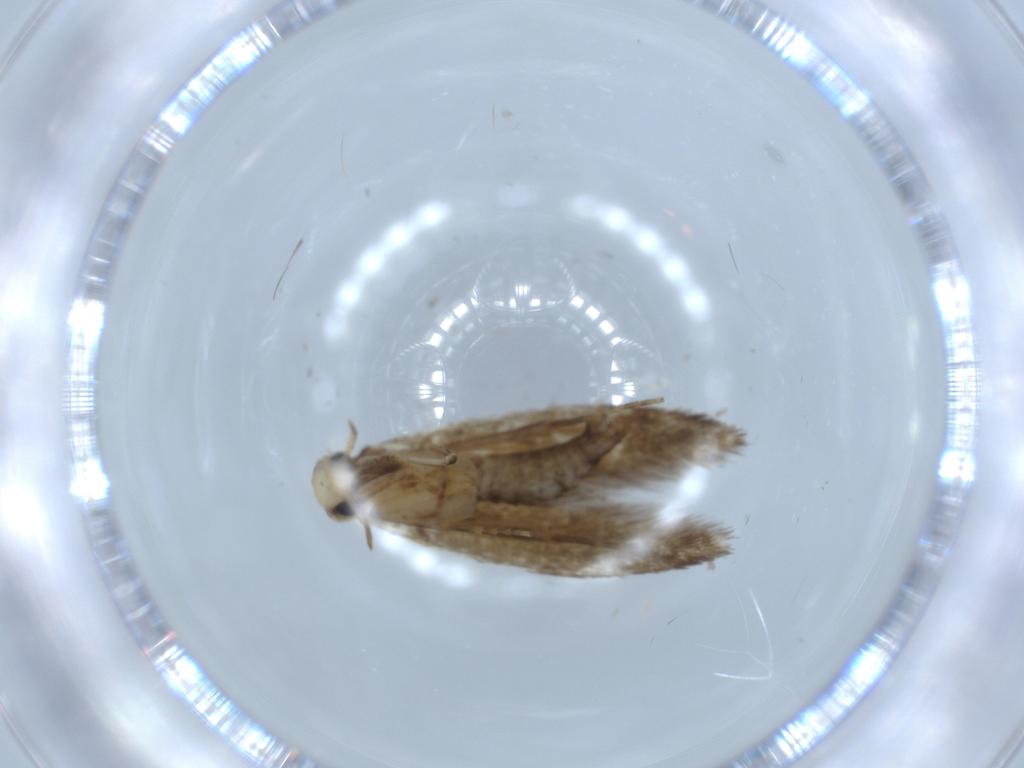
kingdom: Animalia
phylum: Arthropoda
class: Insecta
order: Lepidoptera
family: Tineidae
